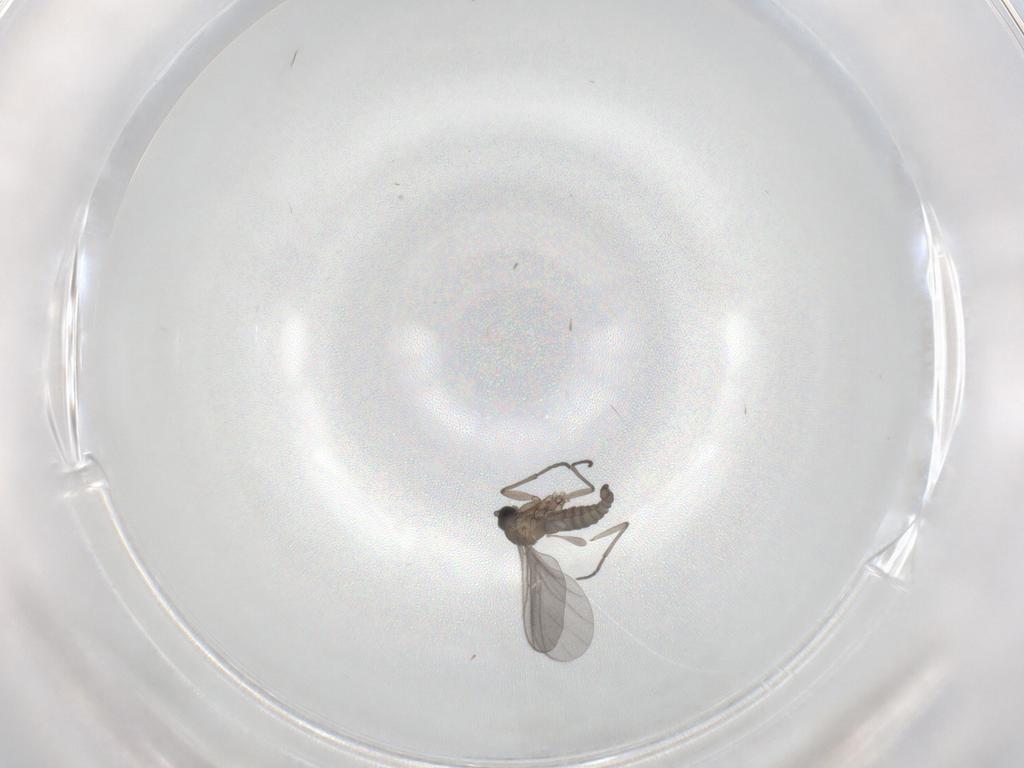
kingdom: Animalia
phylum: Arthropoda
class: Insecta
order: Diptera
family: Sciaridae
